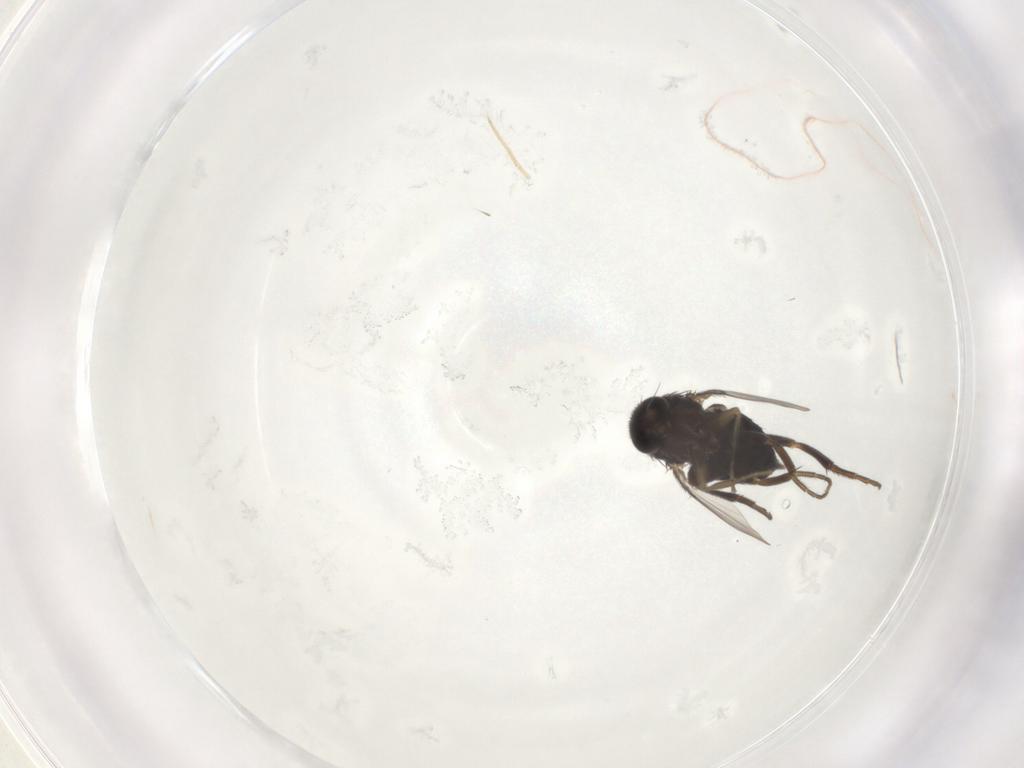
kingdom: Animalia
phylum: Arthropoda
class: Insecta
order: Diptera
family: Phoridae
